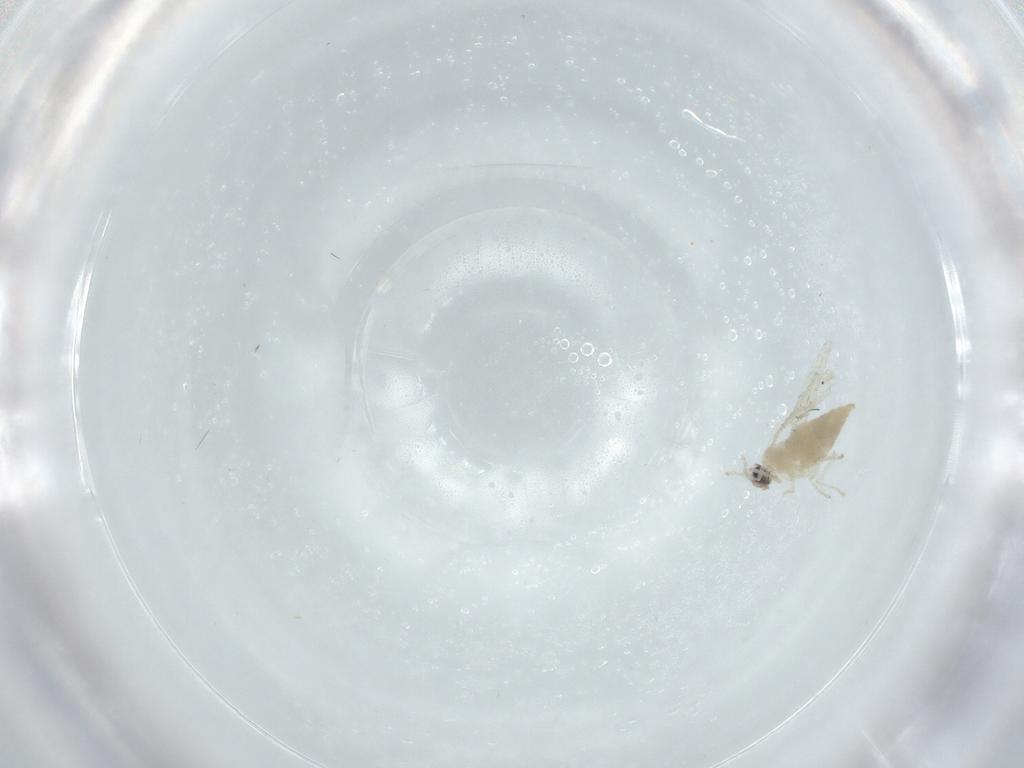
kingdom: Animalia
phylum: Arthropoda
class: Insecta
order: Diptera
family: Cecidomyiidae
